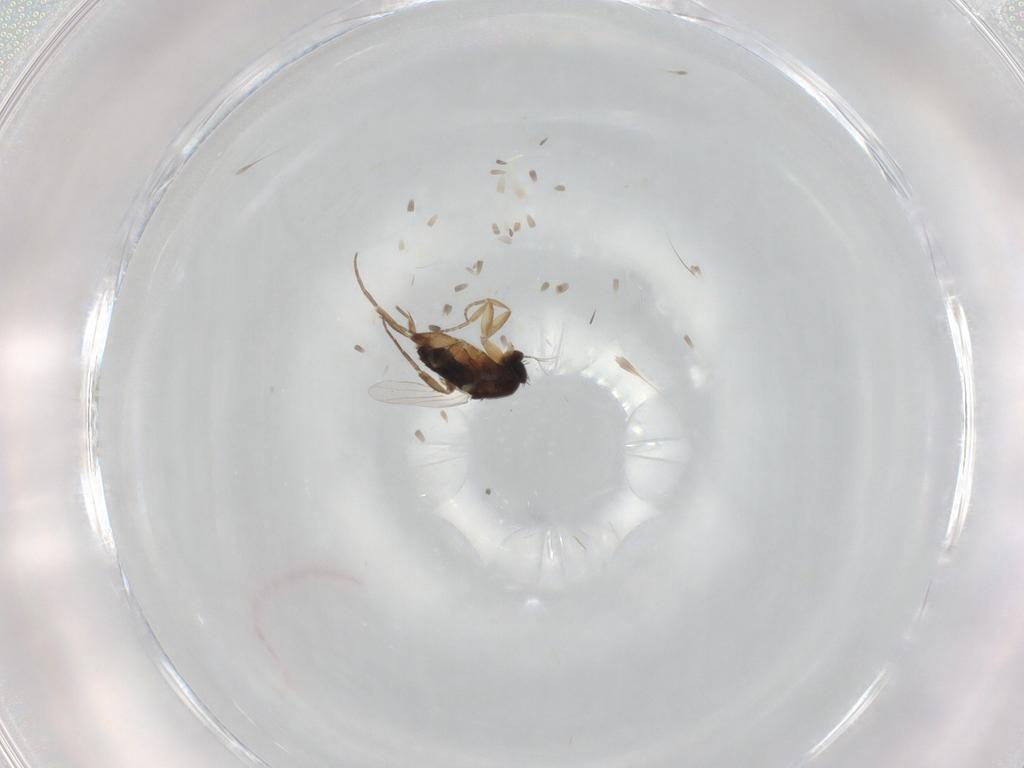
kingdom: Animalia
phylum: Arthropoda
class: Insecta
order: Diptera
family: Phoridae
